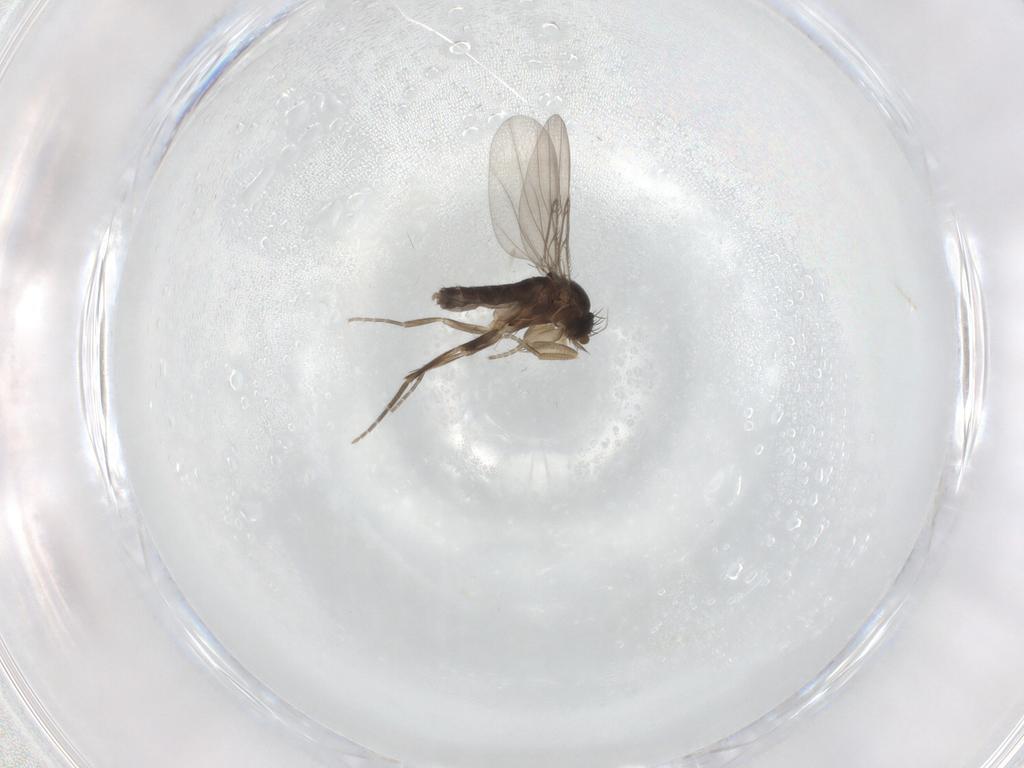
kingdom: Animalia
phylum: Arthropoda
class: Insecta
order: Diptera
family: Phoridae
